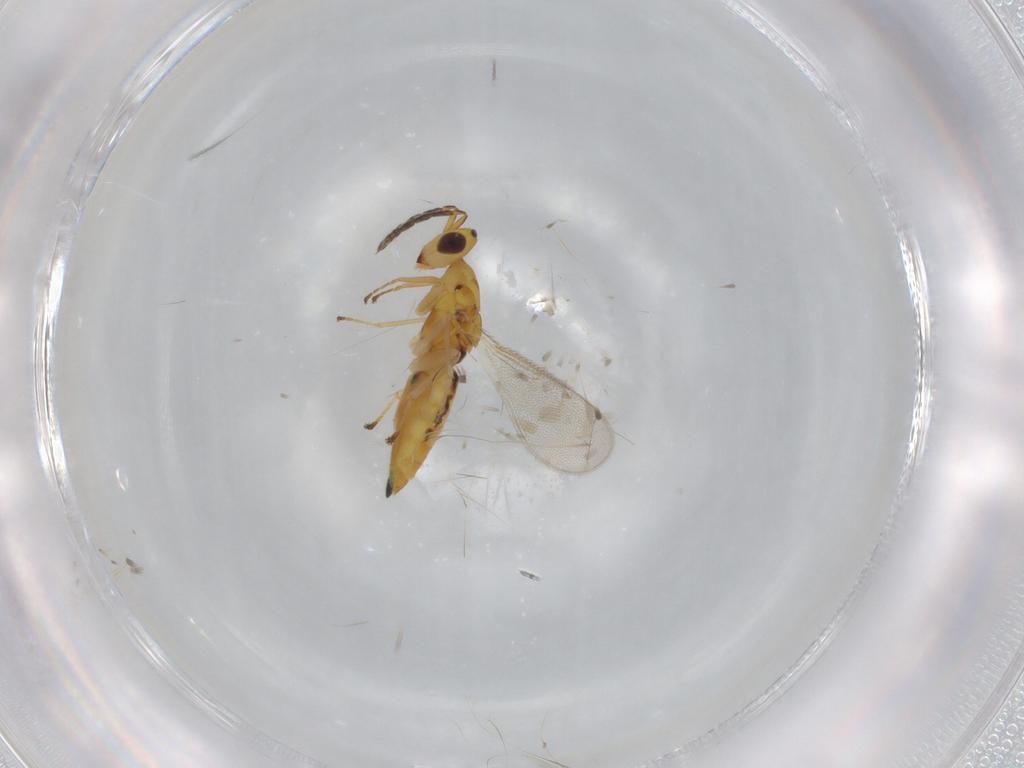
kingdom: Animalia
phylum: Arthropoda
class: Insecta
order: Hymenoptera
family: Eulophidae
